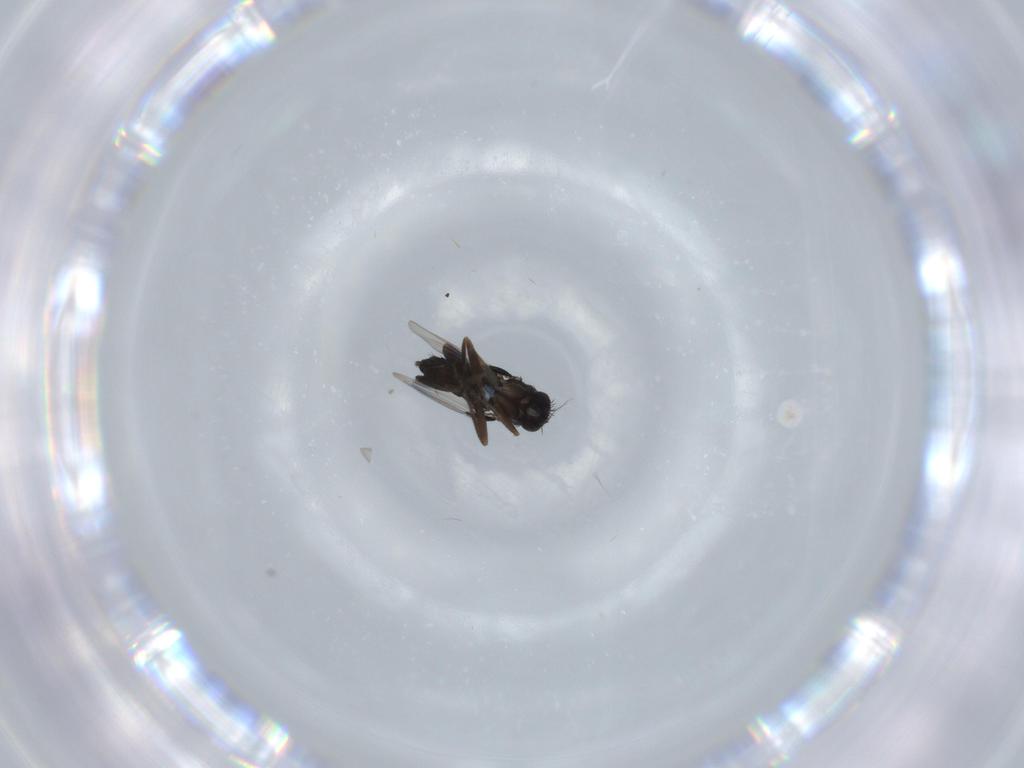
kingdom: Animalia
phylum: Arthropoda
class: Insecta
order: Diptera
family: Phoridae
